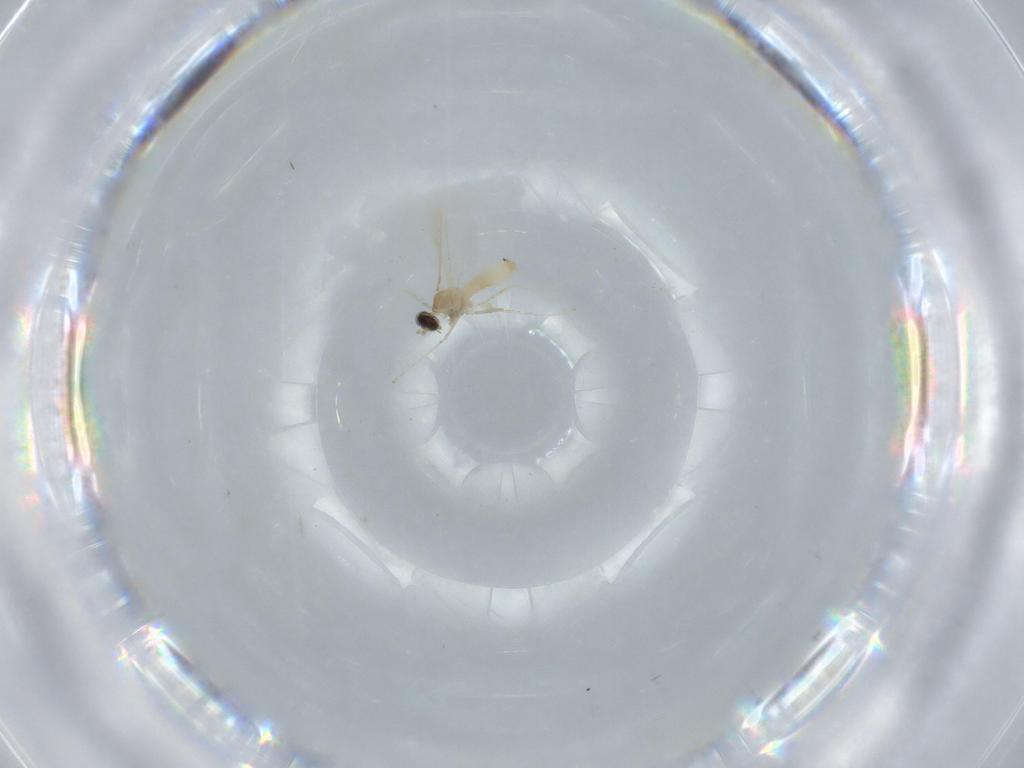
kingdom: Animalia
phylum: Arthropoda
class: Insecta
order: Diptera
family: Cecidomyiidae
